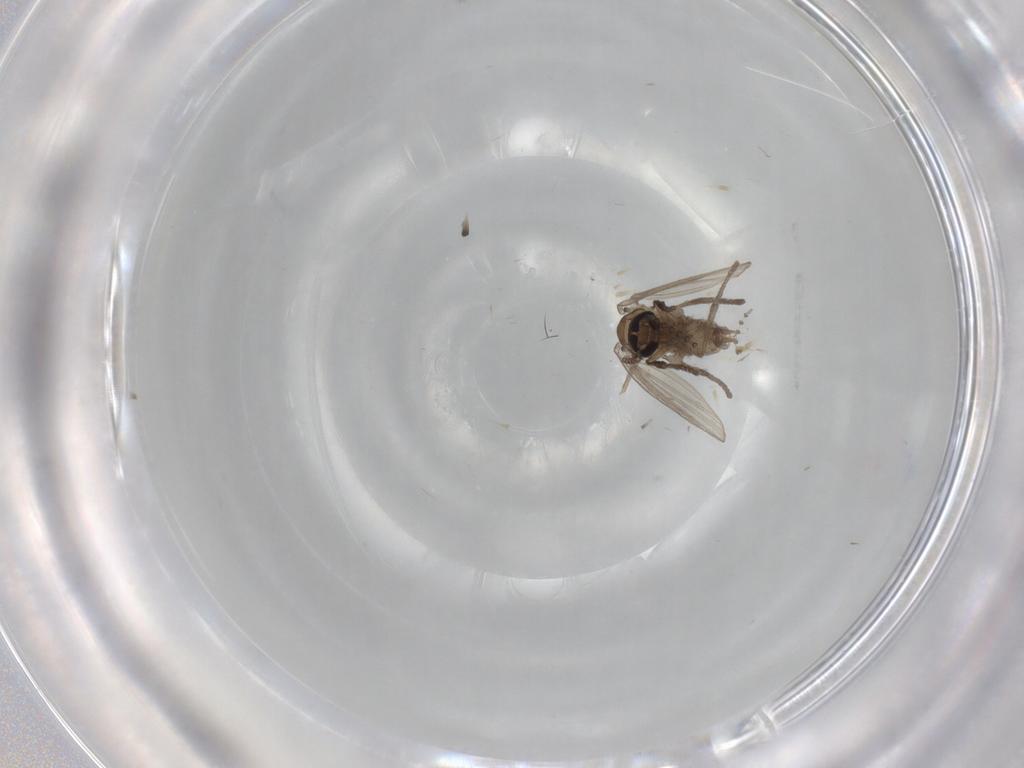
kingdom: Animalia
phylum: Arthropoda
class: Insecta
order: Diptera
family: Psychodidae
